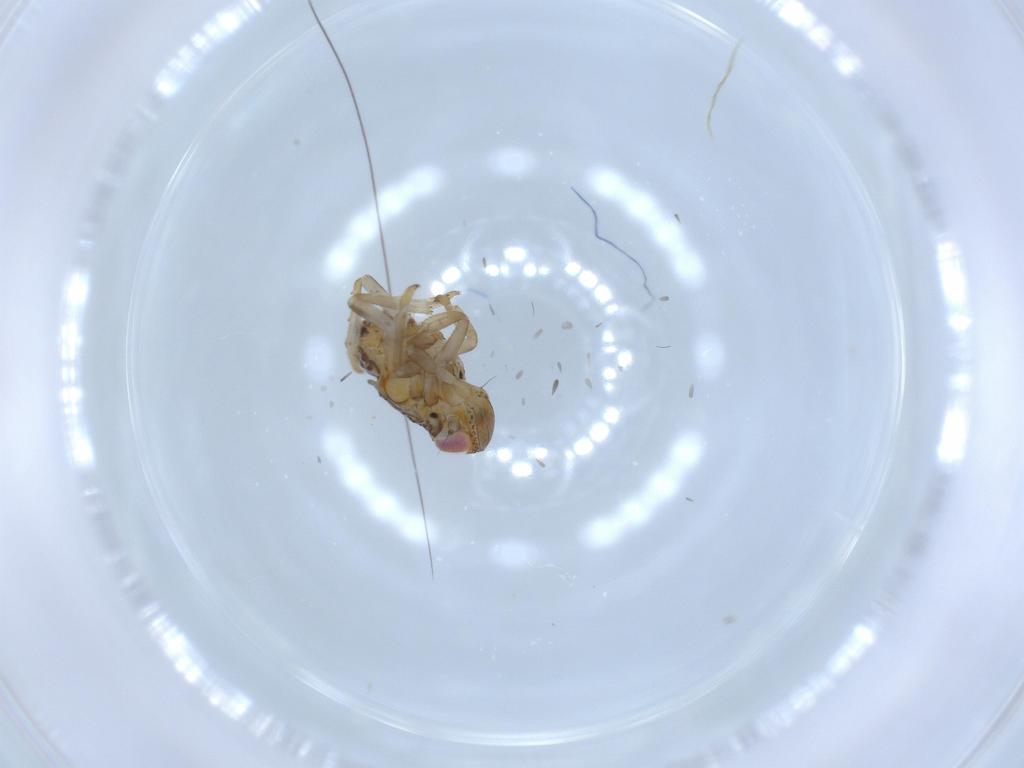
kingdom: Animalia
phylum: Arthropoda
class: Insecta
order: Hemiptera
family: Issidae
